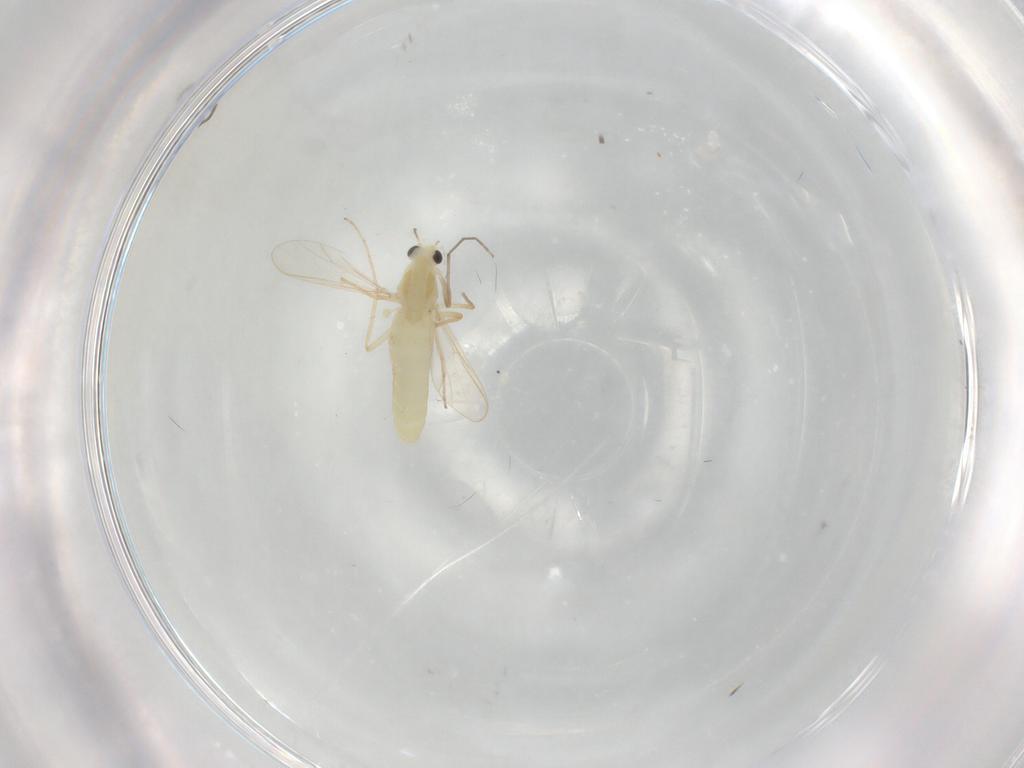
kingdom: Animalia
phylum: Arthropoda
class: Insecta
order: Diptera
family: Chironomidae
